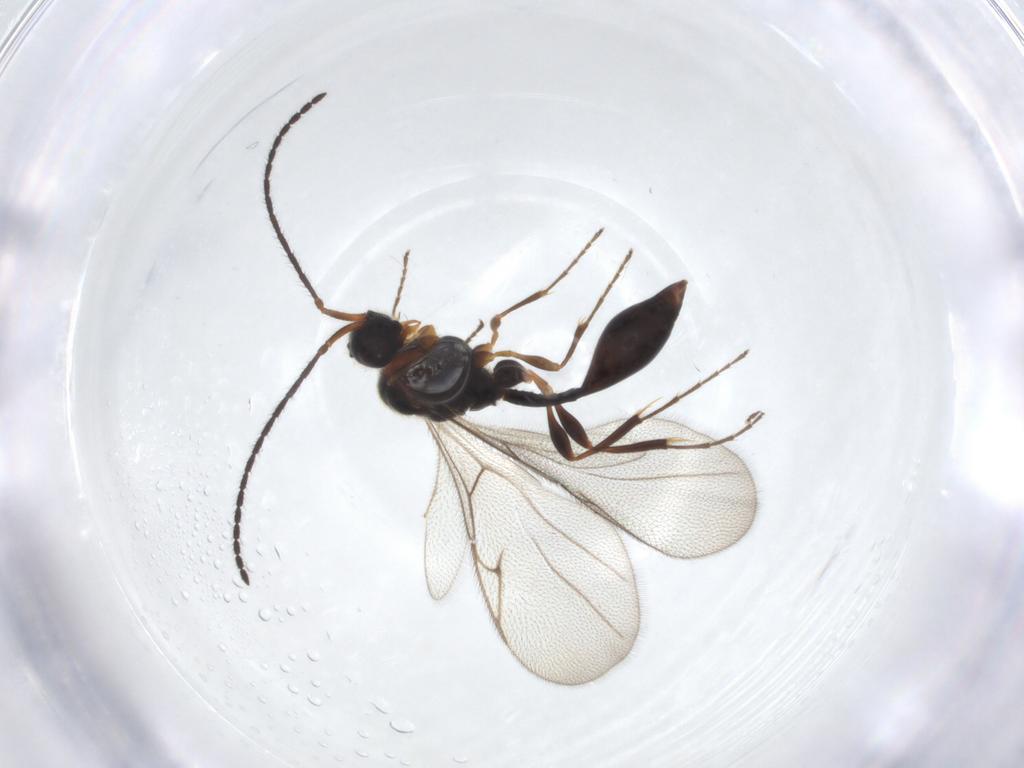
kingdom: Animalia
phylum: Arthropoda
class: Insecta
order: Hymenoptera
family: Diapriidae
